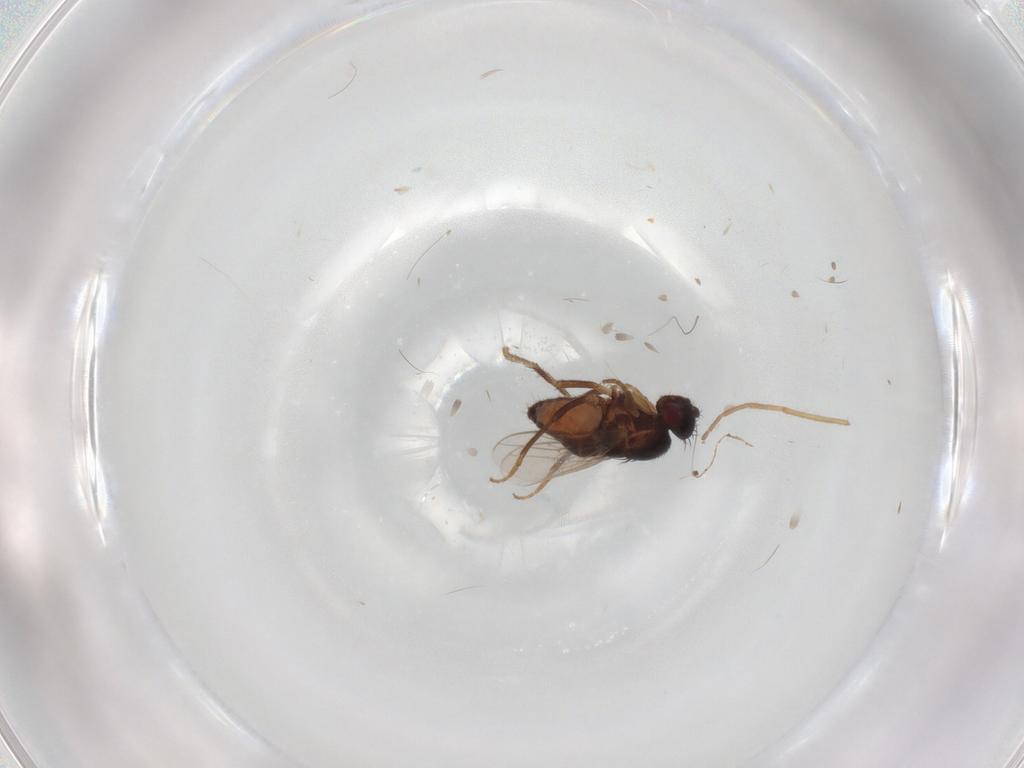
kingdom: Animalia
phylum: Arthropoda
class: Insecta
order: Diptera
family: Sphaeroceridae
